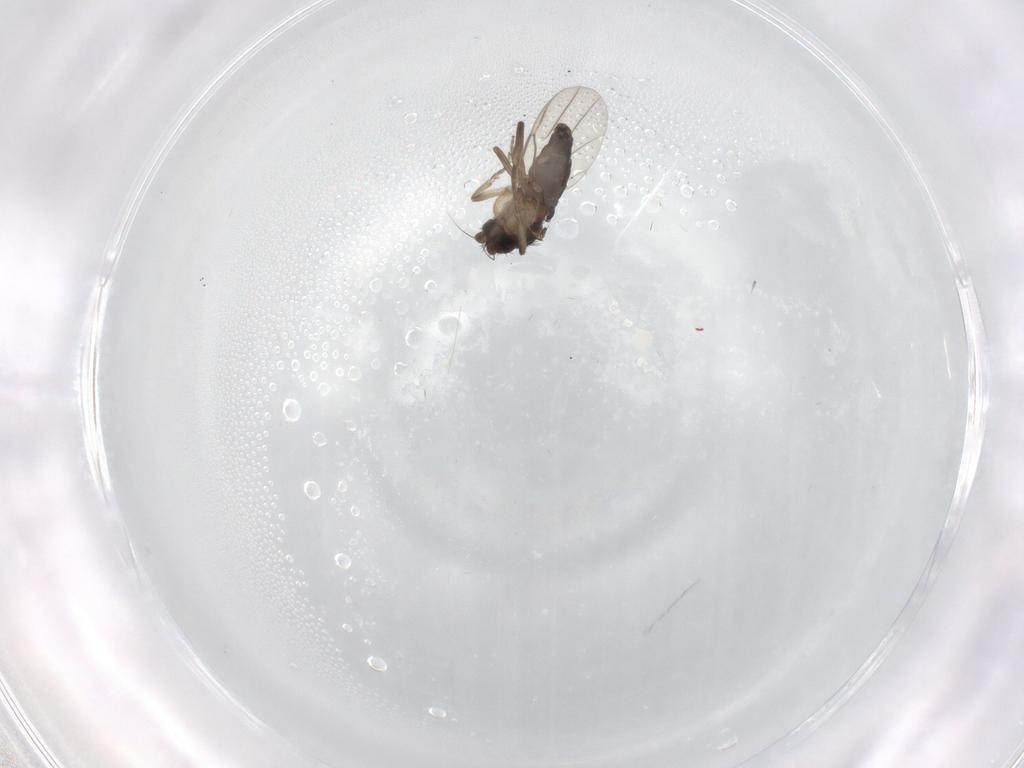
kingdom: Animalia
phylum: Arthropoda
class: Insecta
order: Diptera
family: Phoridae
